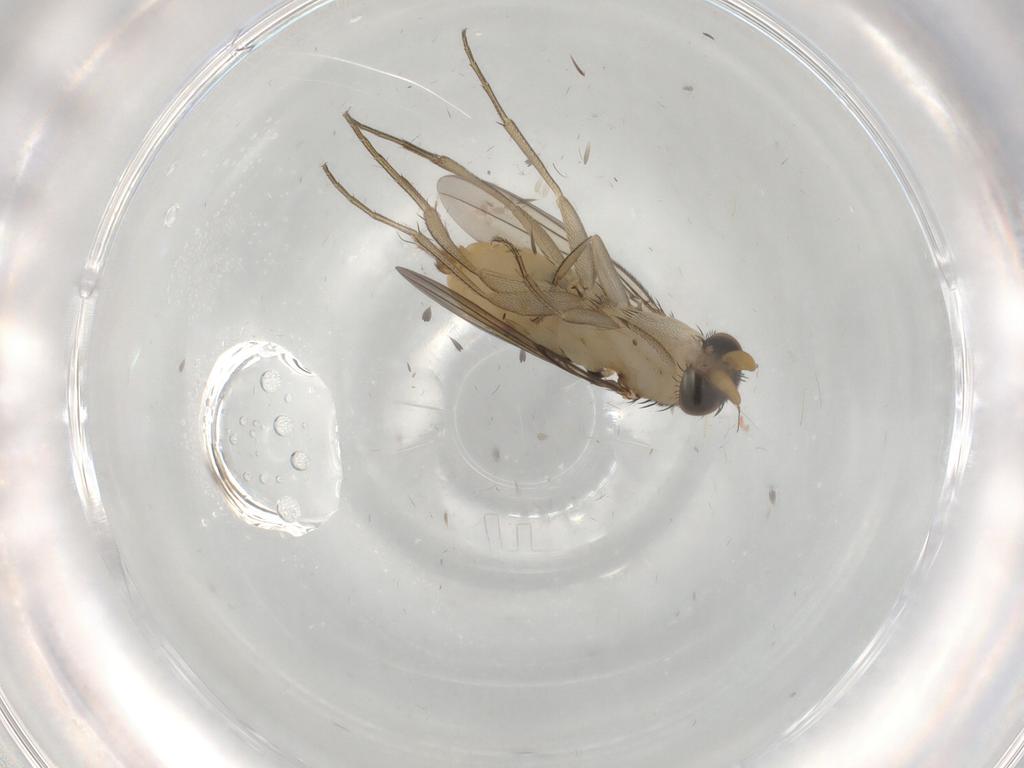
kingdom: Animalia
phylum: Arthropoda
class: Insecta
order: Diptera
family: Phoridae
